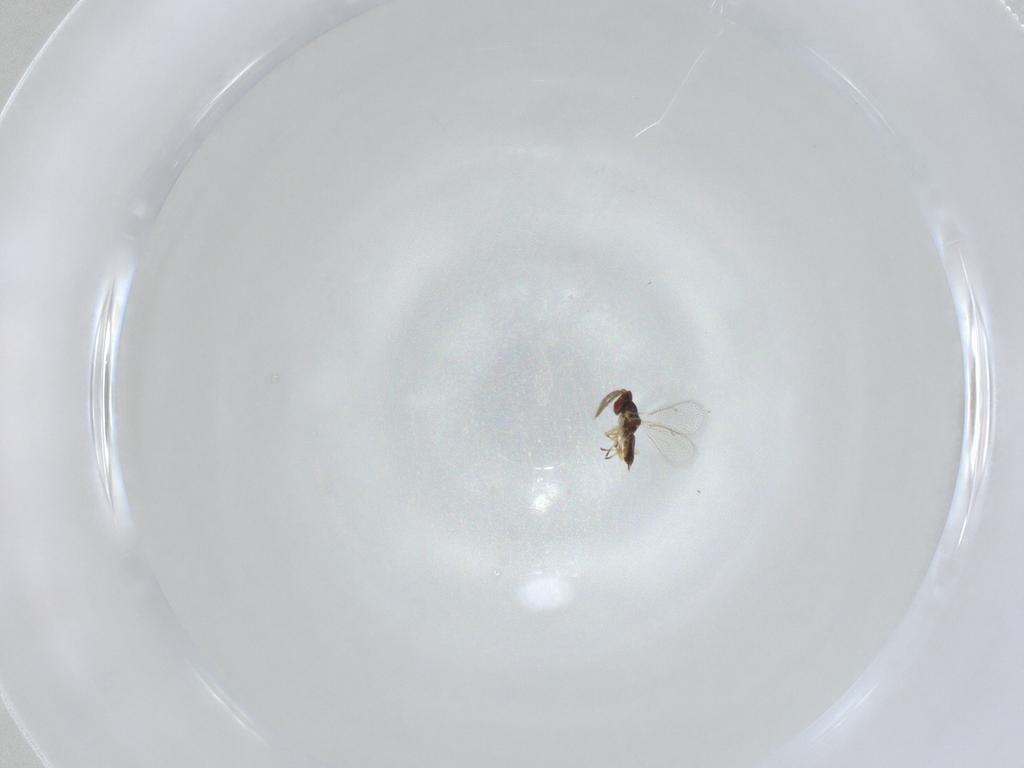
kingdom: Animalia
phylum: Arthropoda
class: Insecta
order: Hymenoptera
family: Eulophidae
